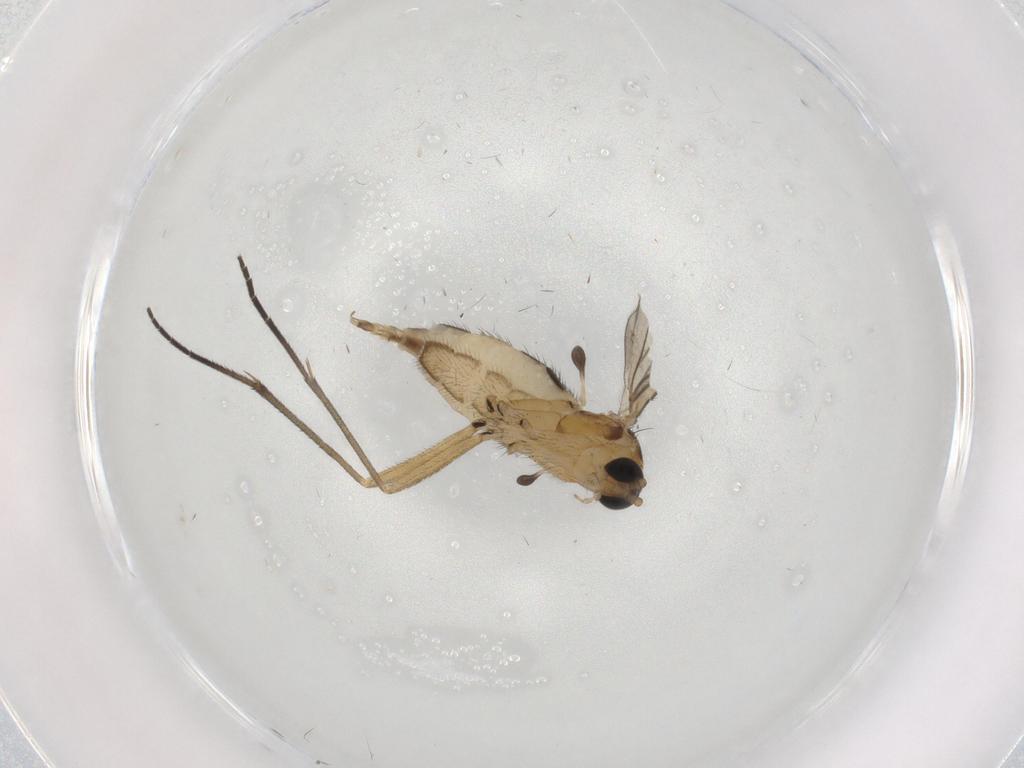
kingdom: Animalia
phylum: Arthropoda
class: Insecta
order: Diptera
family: Sciaridae
